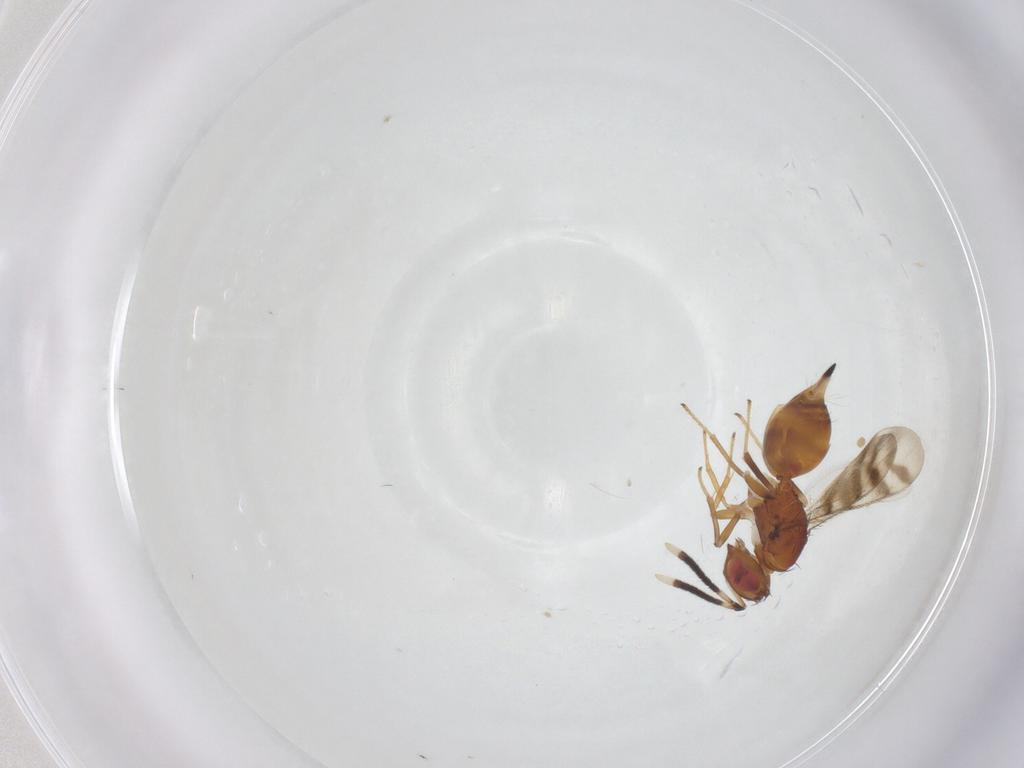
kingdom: Animalia
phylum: Arthropoda
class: Insecta
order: Hymenoptera
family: Diparidae
